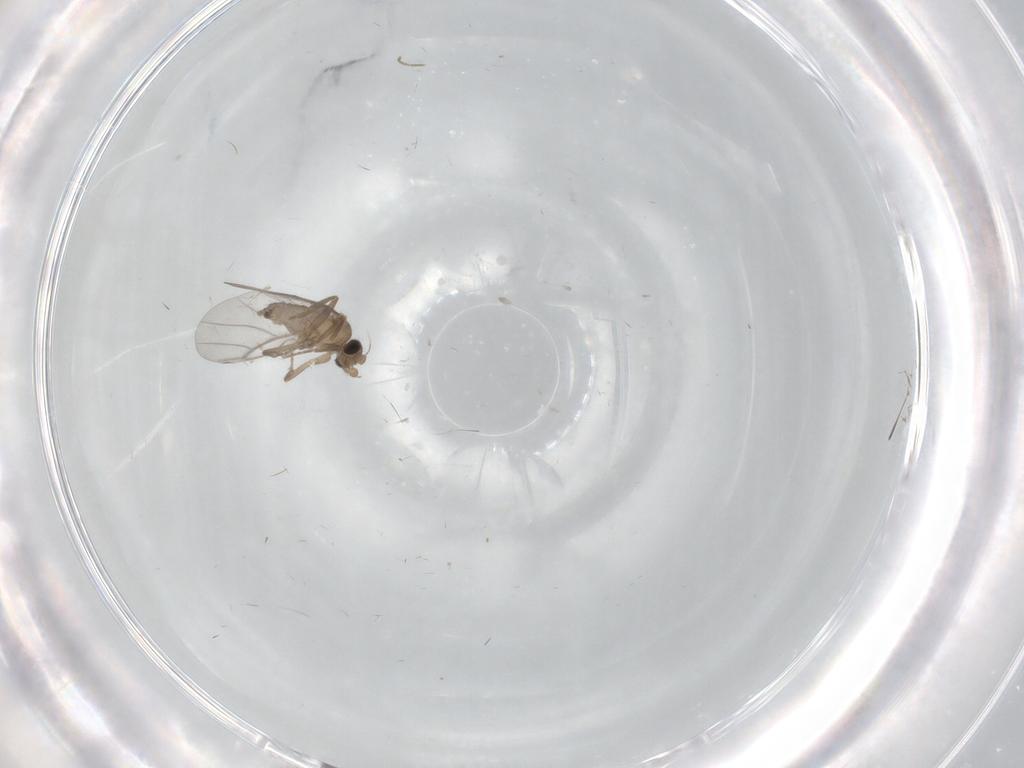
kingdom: Animalia
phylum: Arthropoda
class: Insecta
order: Diptera
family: Cecidomyiidae
